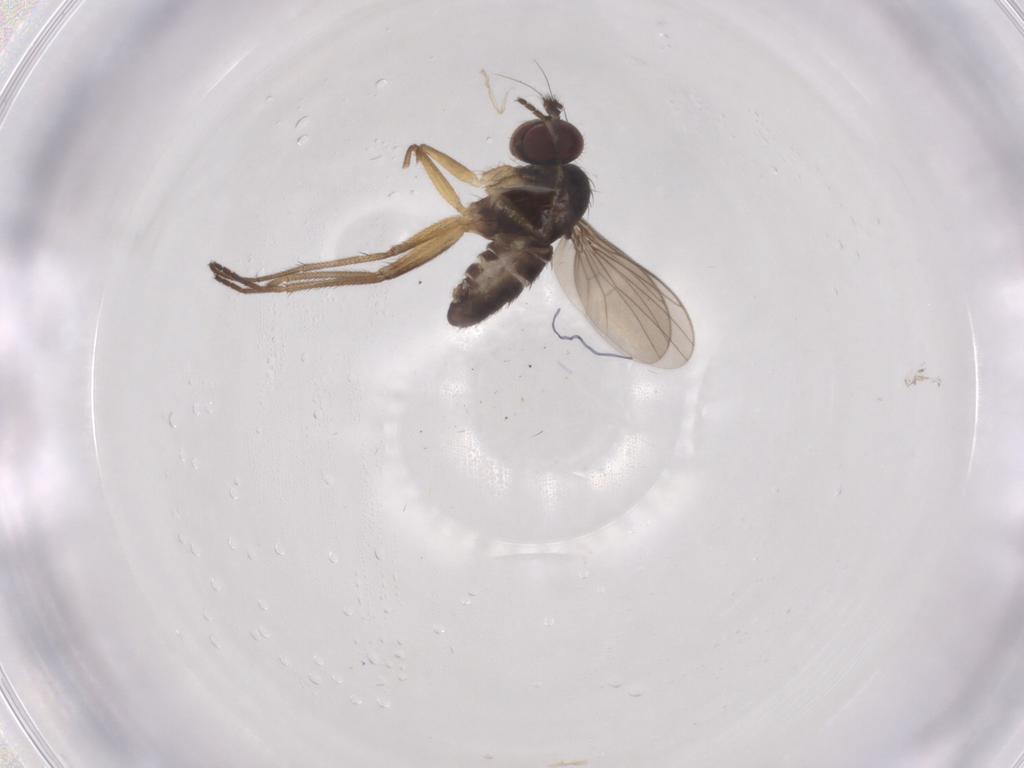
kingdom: Animalia
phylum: Arthropoda
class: Insecta
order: Diptera
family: Dolichopodidae
